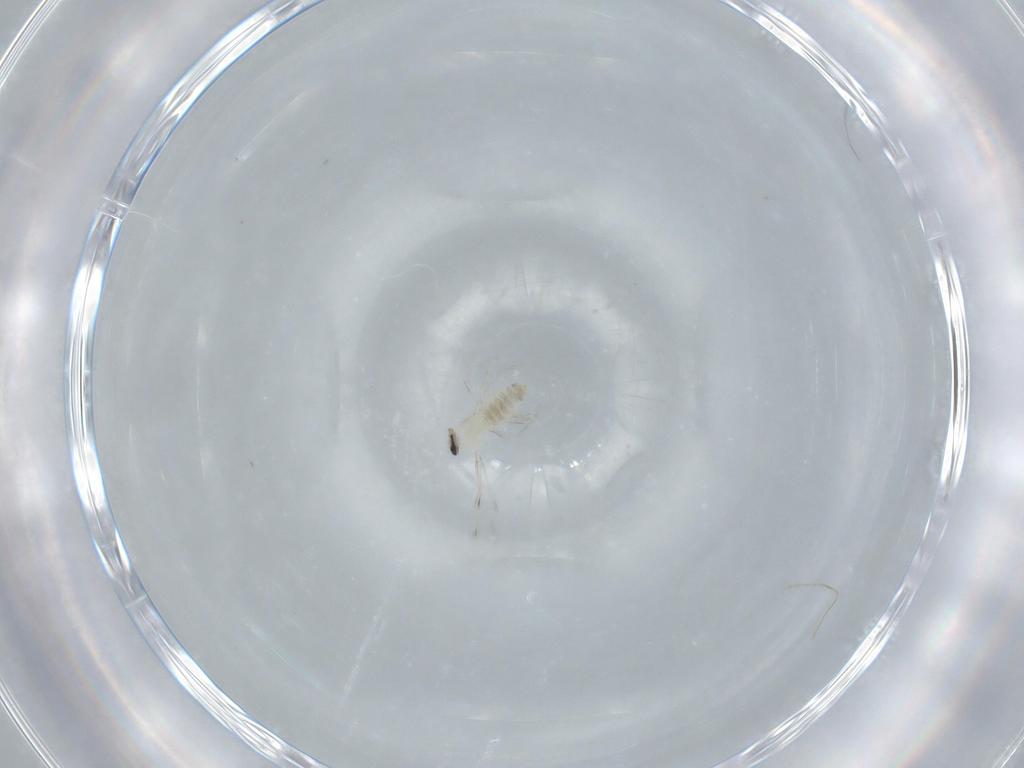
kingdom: Animalia
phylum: Arthropoda
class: Insecta
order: Diptera
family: Cecidomyiidae
